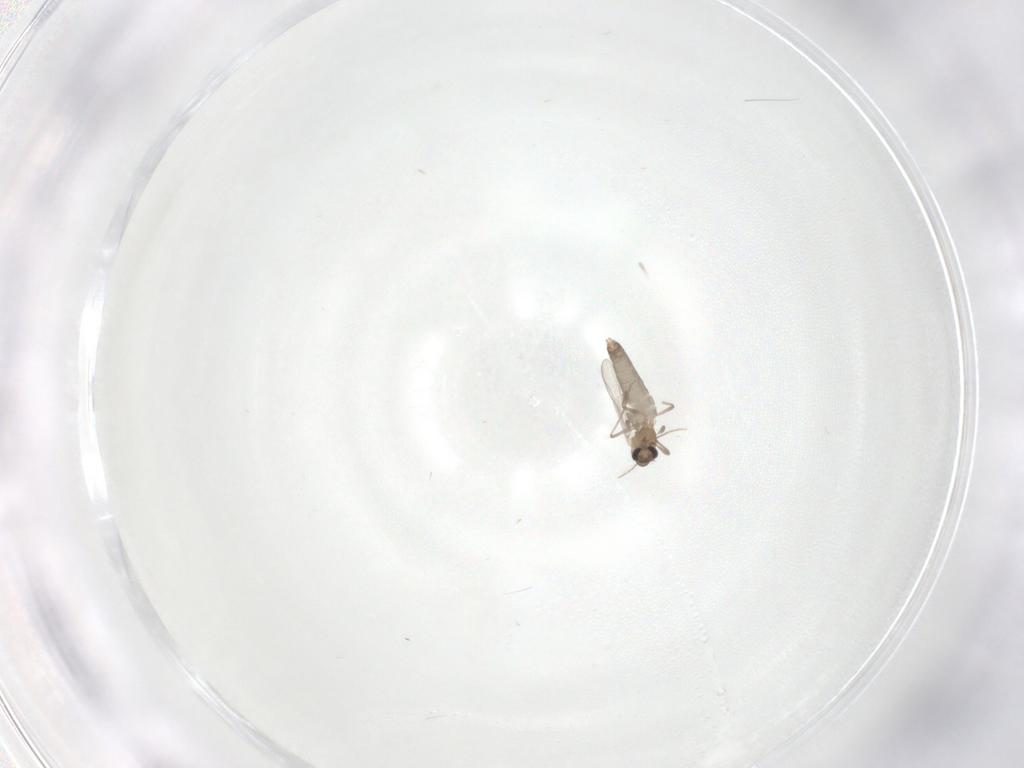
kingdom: Animalia
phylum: Arthropoda
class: Insecta
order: Diptera
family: Chironomidae
